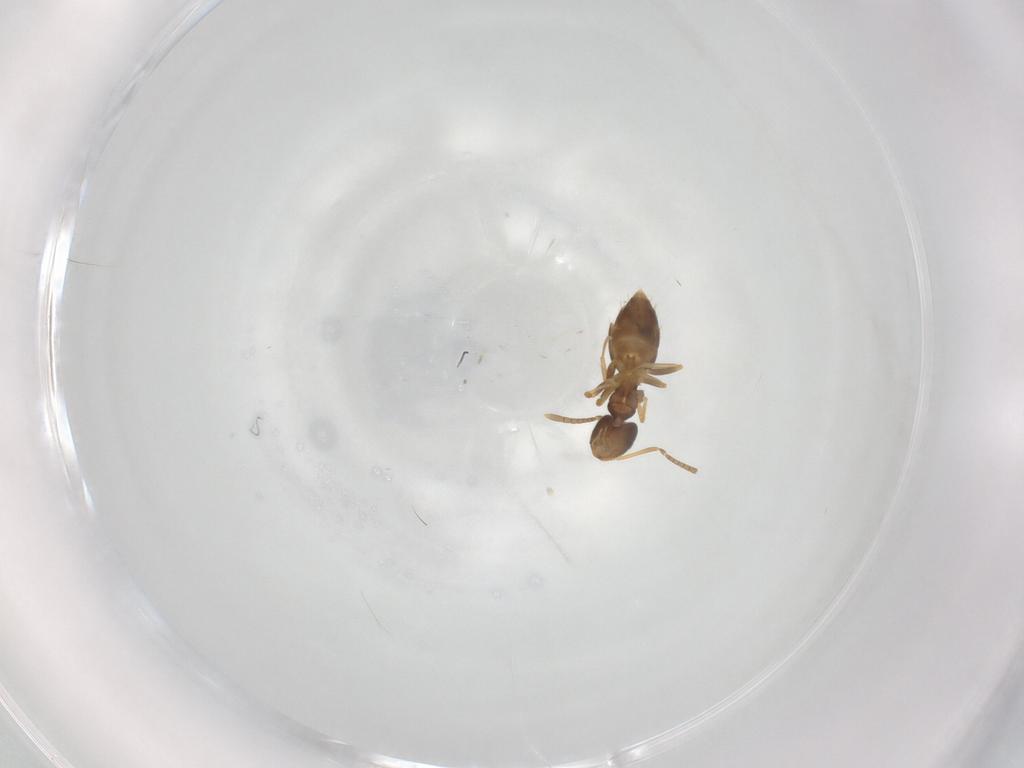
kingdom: Animalia
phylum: Arthropoda
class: Insecta
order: Hymenoptera
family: Formicidae
